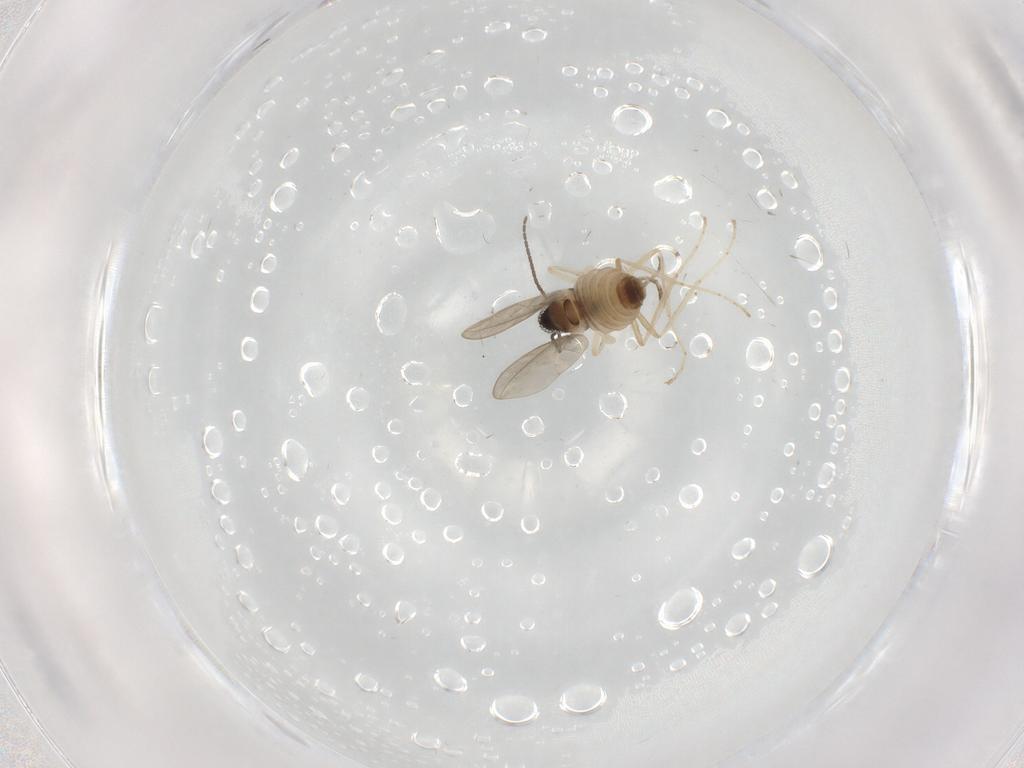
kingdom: Animalia
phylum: Arthropoda
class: Insecta
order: Diptera
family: Cecidomyiidae
